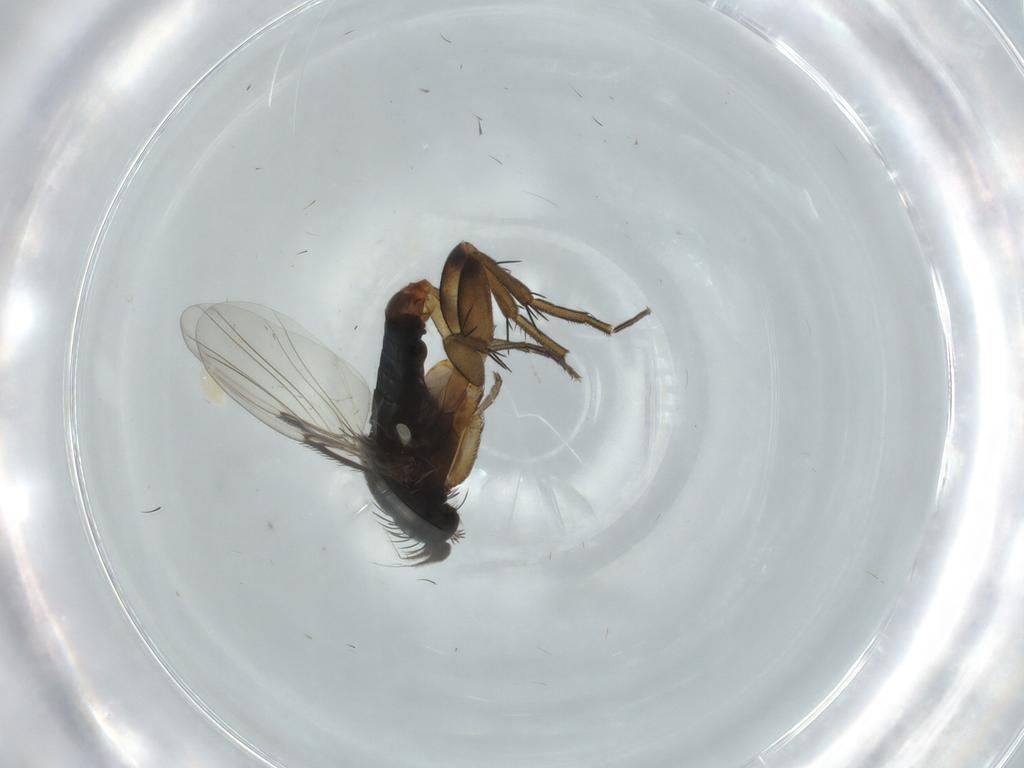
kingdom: Animalia
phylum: Arthropoda
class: Insecta
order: Diptera
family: Phoridae
